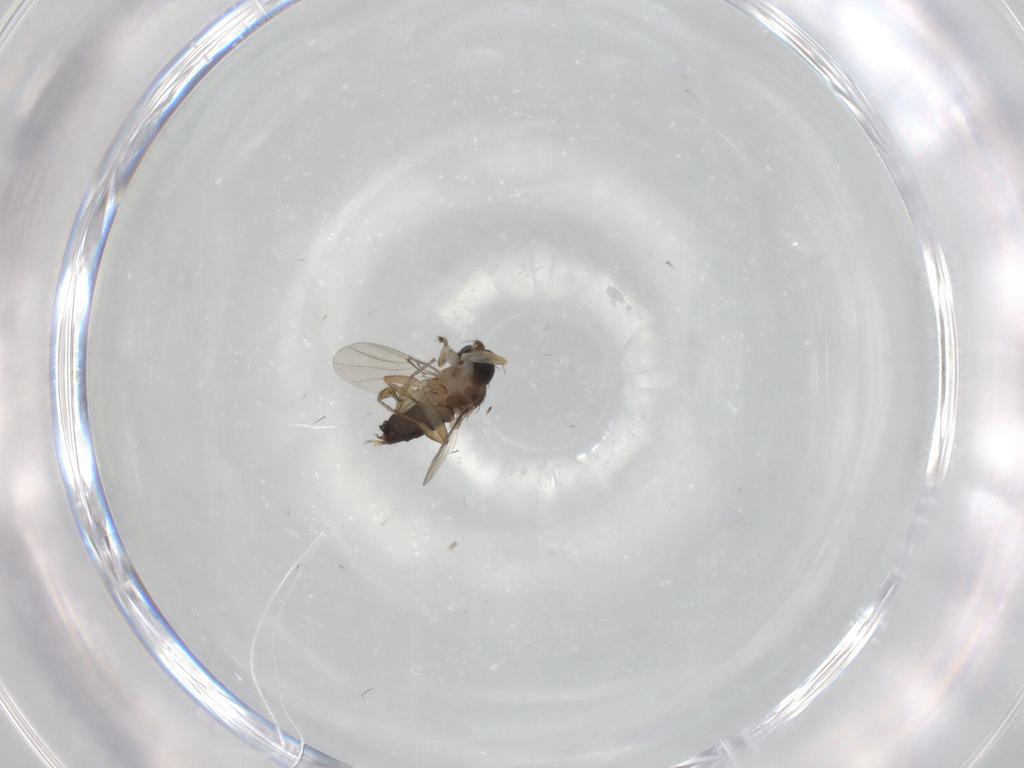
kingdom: Animalia
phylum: Arthropoda
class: Insecta
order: Diptera
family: Phoridae
